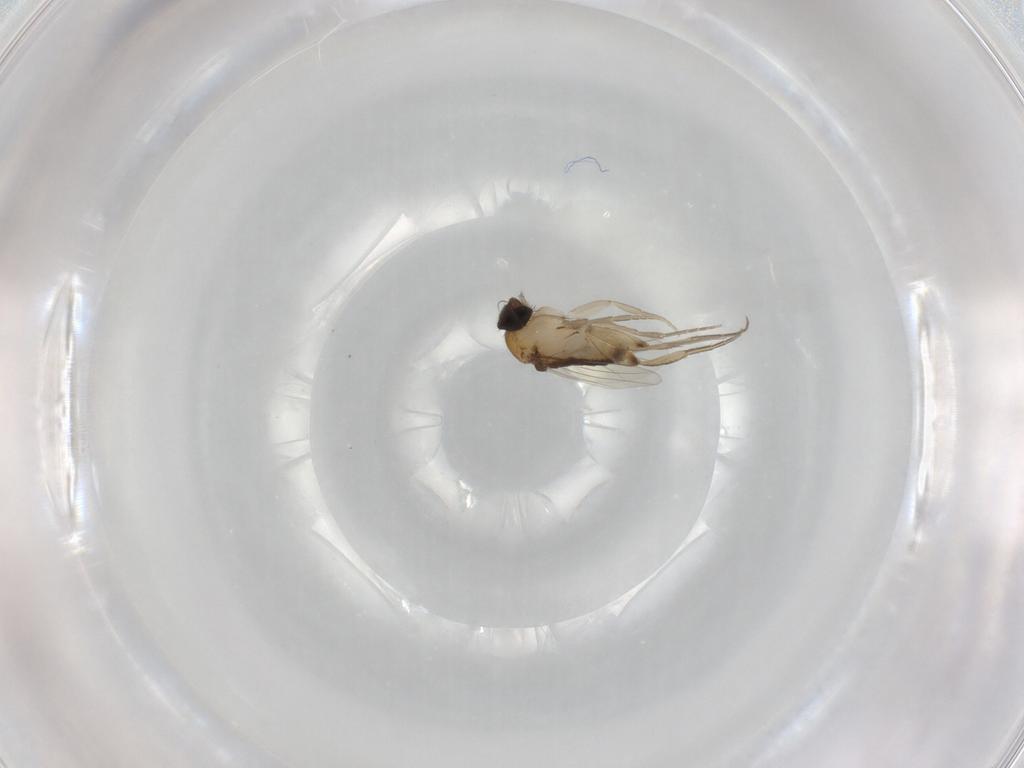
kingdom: Animalia
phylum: Arthropoda
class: Insecta
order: Diptera
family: Phoridae
